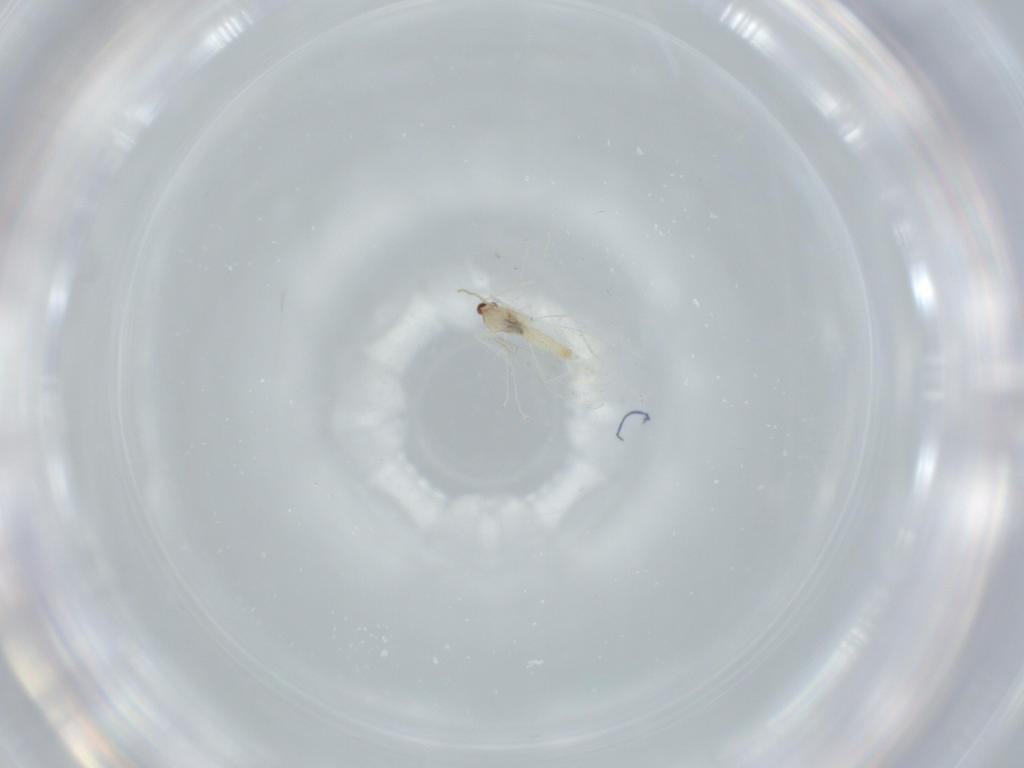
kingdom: Animalia
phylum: Arthropoda
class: Insecta
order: Diptera
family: Cecidomyiidae
